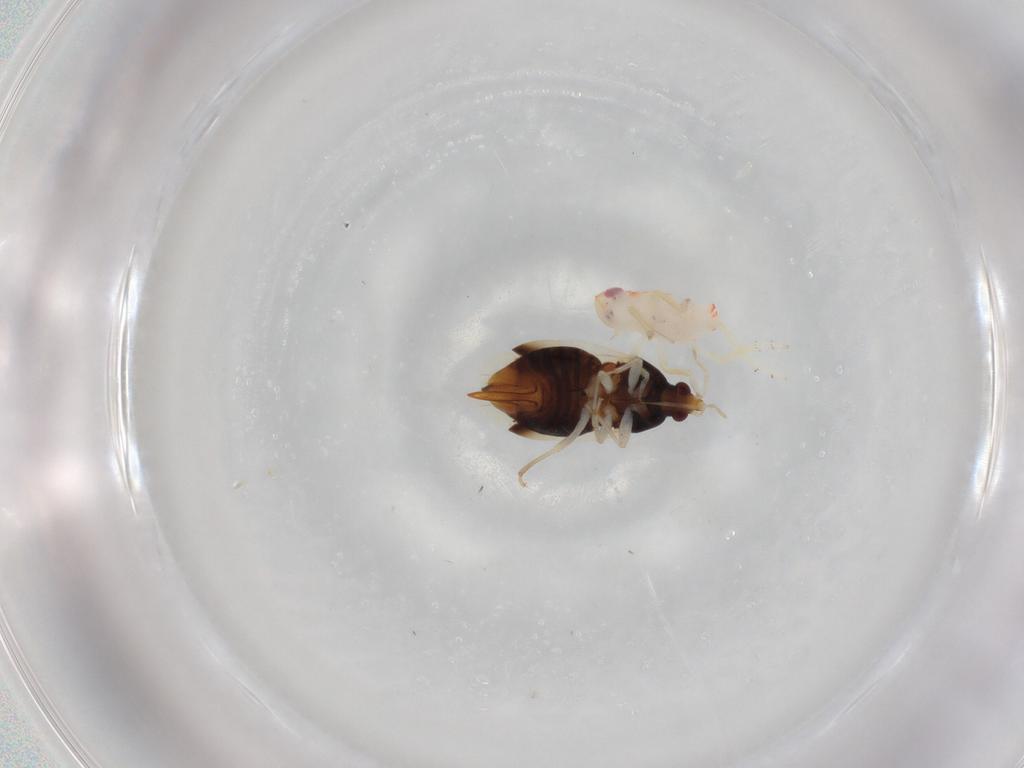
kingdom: Animalia
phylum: Arthropoda
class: Insecta
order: Hemiptera
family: Anthocoridae
